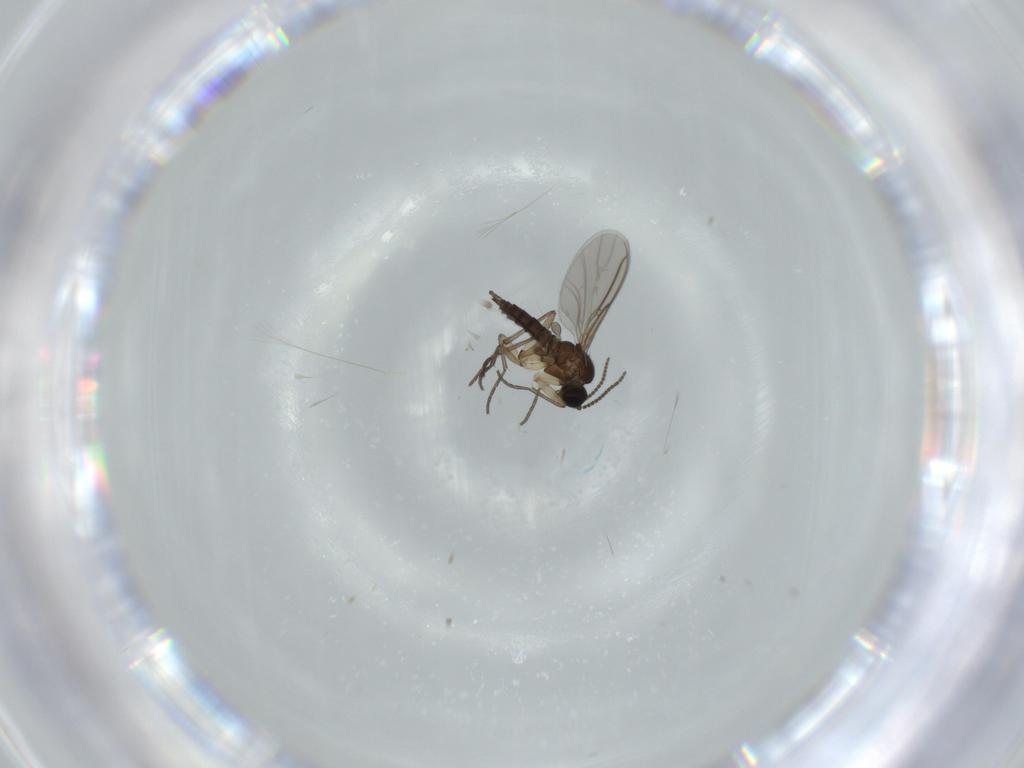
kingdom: Animalia
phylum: Arthropoda
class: Insecta
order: Diptera
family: Sciaridae
